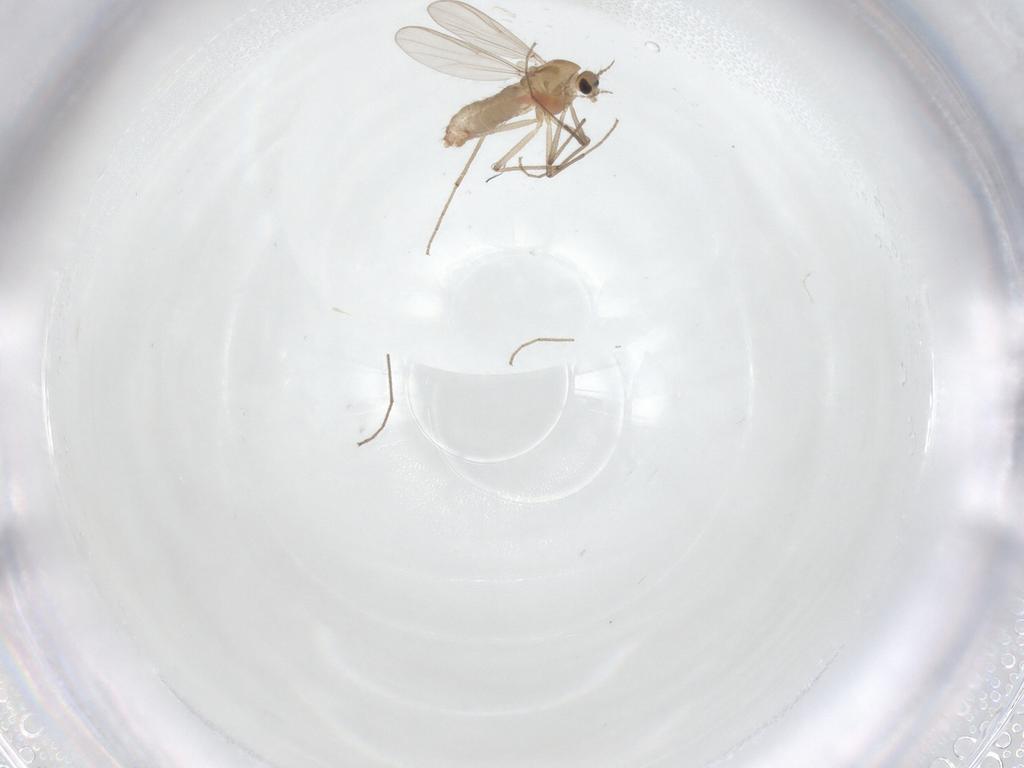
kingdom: Animalia
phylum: Arthropoda
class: Insecta
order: Diptera
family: Chironomidae
